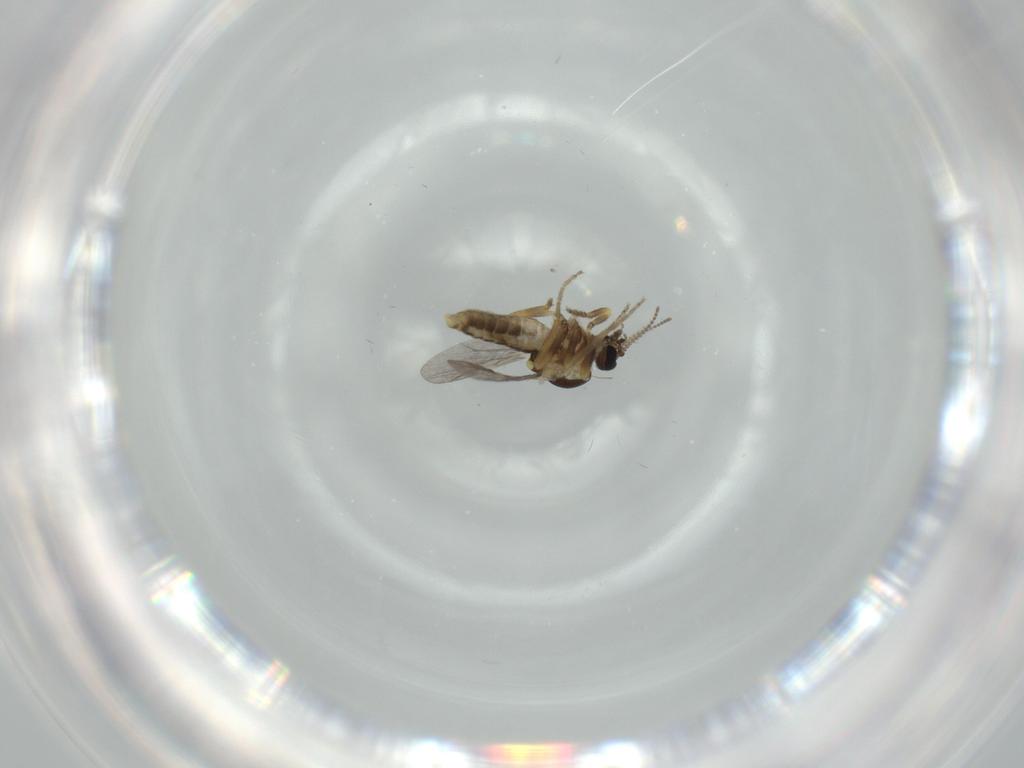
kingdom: Animalia
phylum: Arthropoda
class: Insecta
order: Diptera
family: Ceratopogonidae
